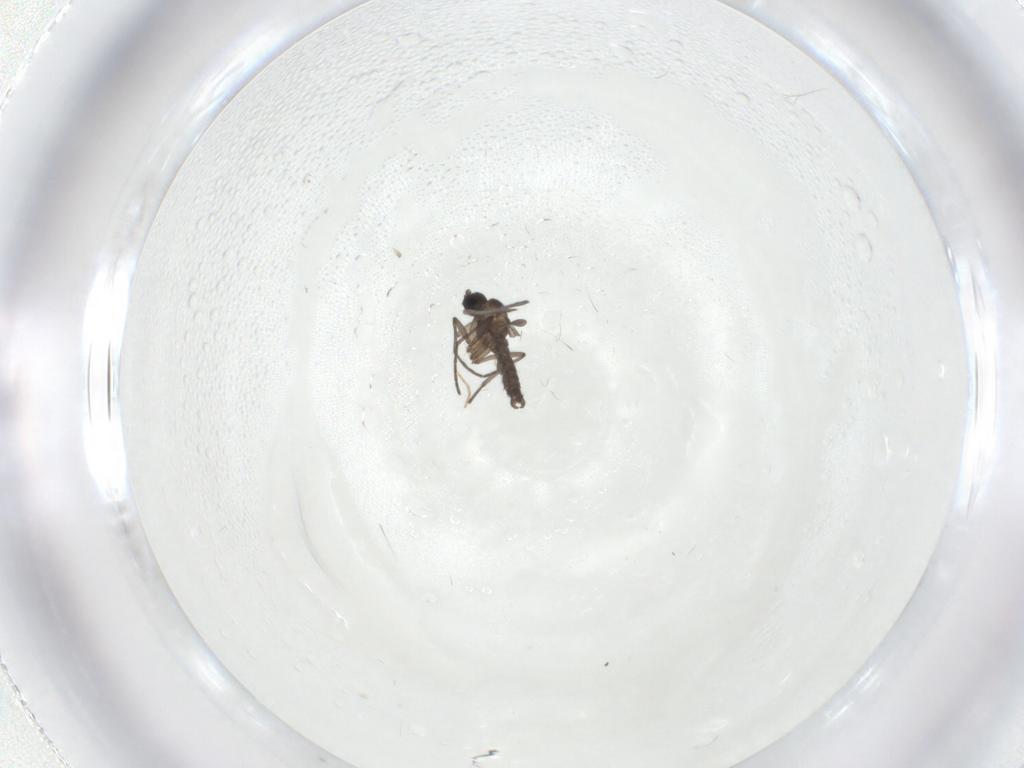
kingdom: Animalia
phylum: Arthropoda
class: Insecta
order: Diptera
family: Sciaridae
